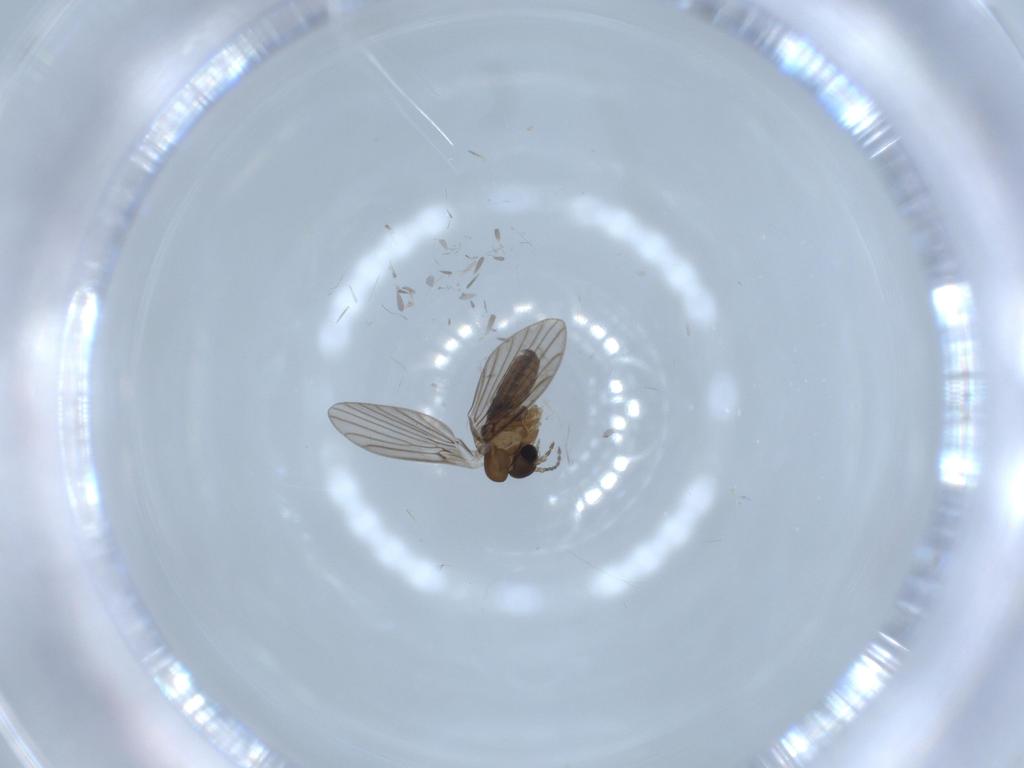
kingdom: Animalia
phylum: Arthropoda
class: Insecta
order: Diptera
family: Psychodidae
